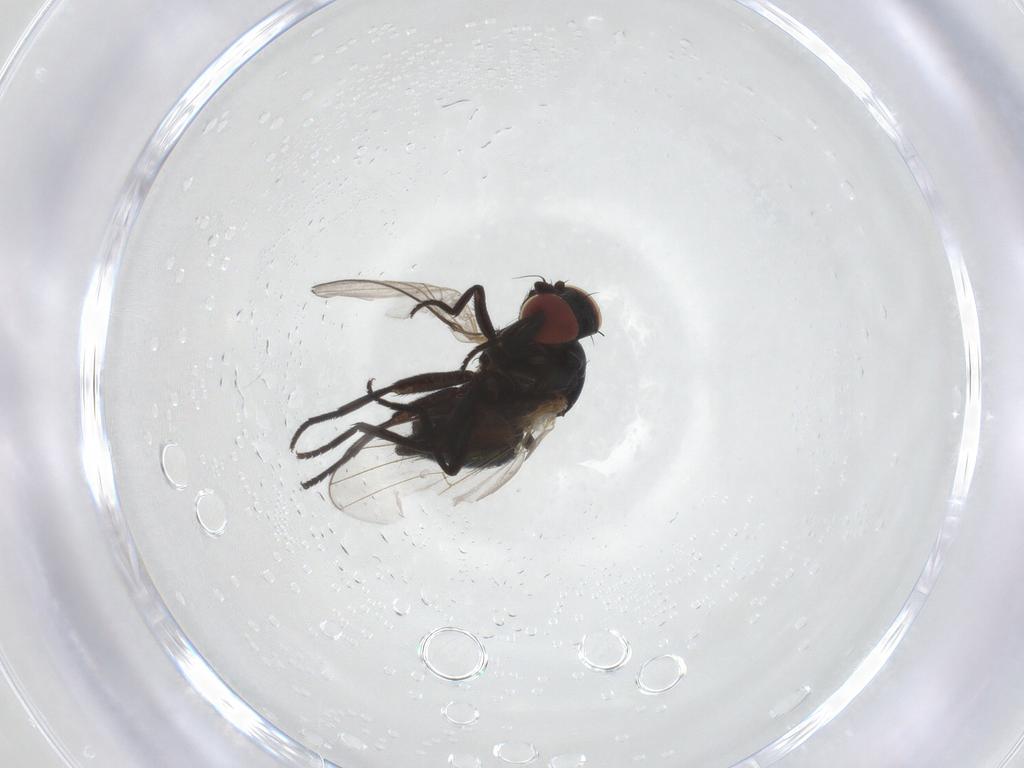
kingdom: Animalia
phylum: Arthropoda
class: Insecta
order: Diptera
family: Agromyzidae
